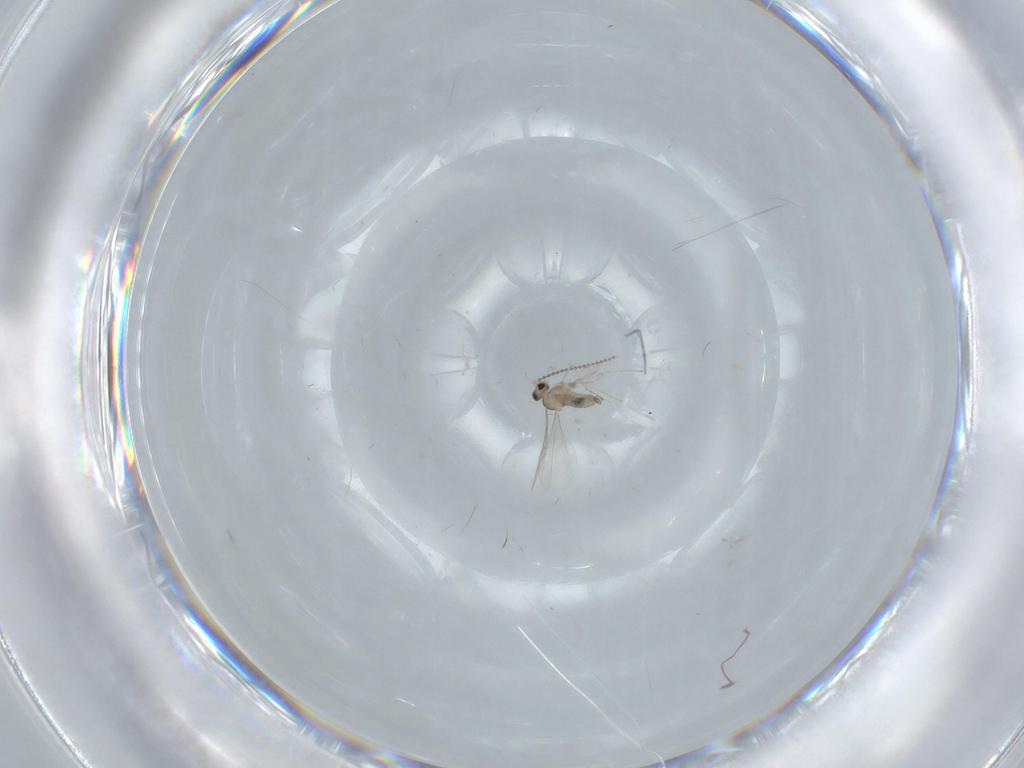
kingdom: Animalia
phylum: Arthropoda
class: Insecta
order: Diptera
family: Cecidomyiidae
